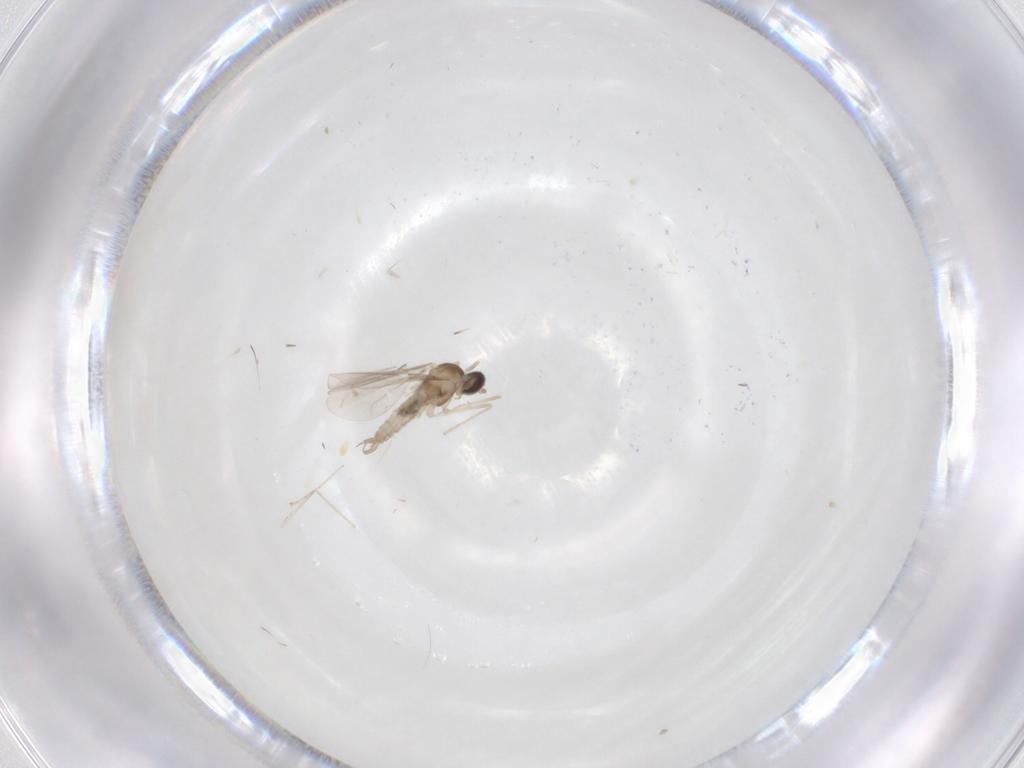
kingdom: Animalia
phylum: Arthropoda
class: Insecta
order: Diptera
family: Cecidomyiidae
